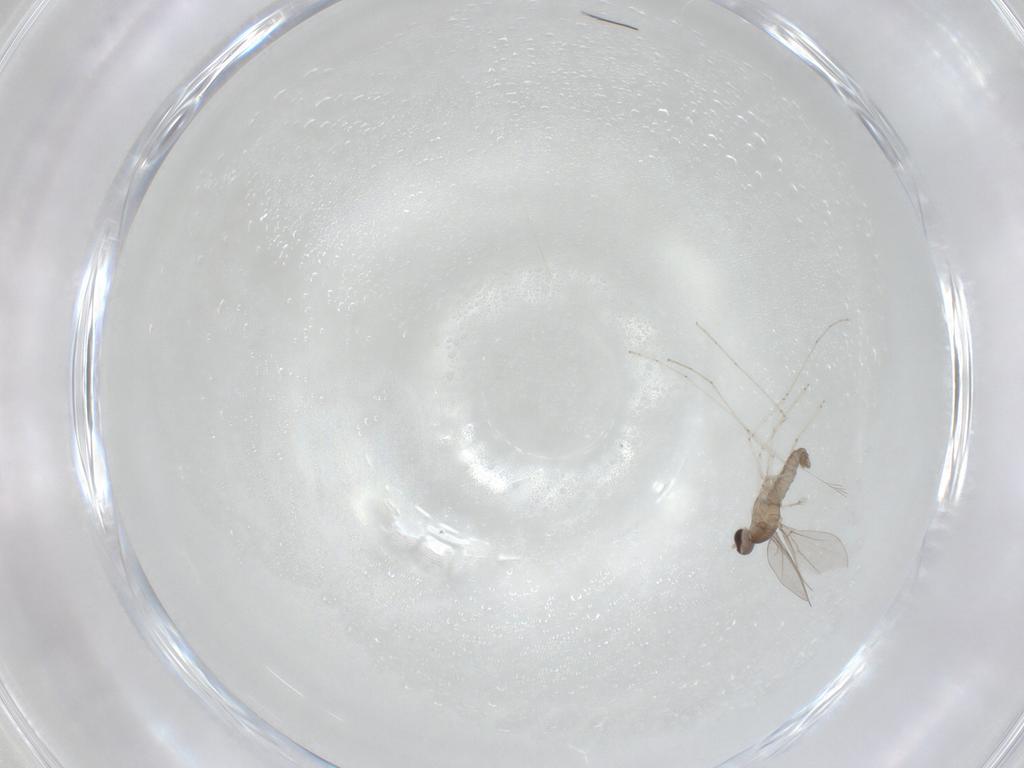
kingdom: Animalia
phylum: Arthropoda
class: Insecta
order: Diptera
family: Cecidomyiidae
